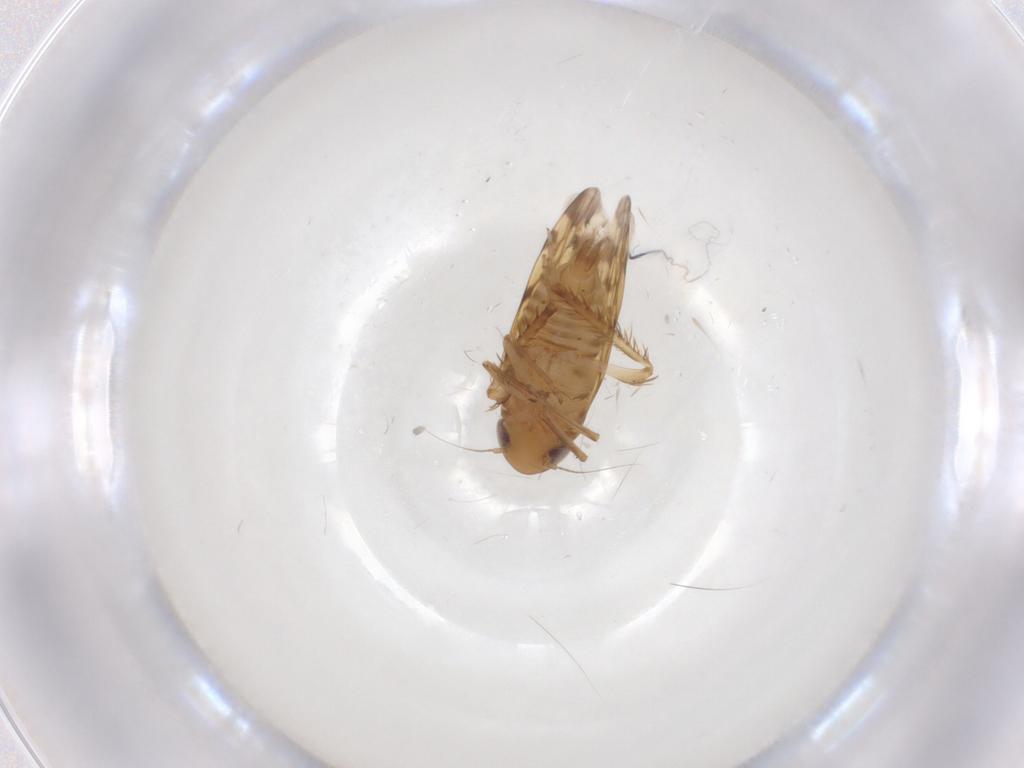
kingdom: Animalia
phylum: Arthropoda
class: Insecta
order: Hemiptera
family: Cicadellidae
